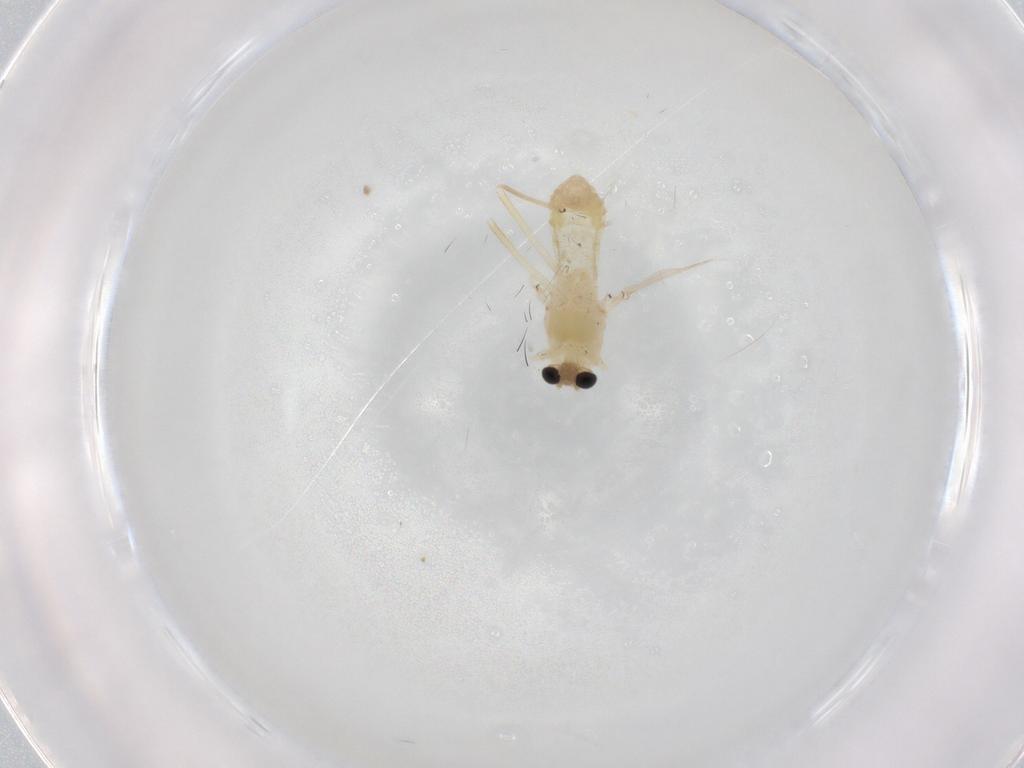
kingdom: Animalia
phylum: Arthropoda
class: Insecta
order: Diptera
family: Chironomidae
